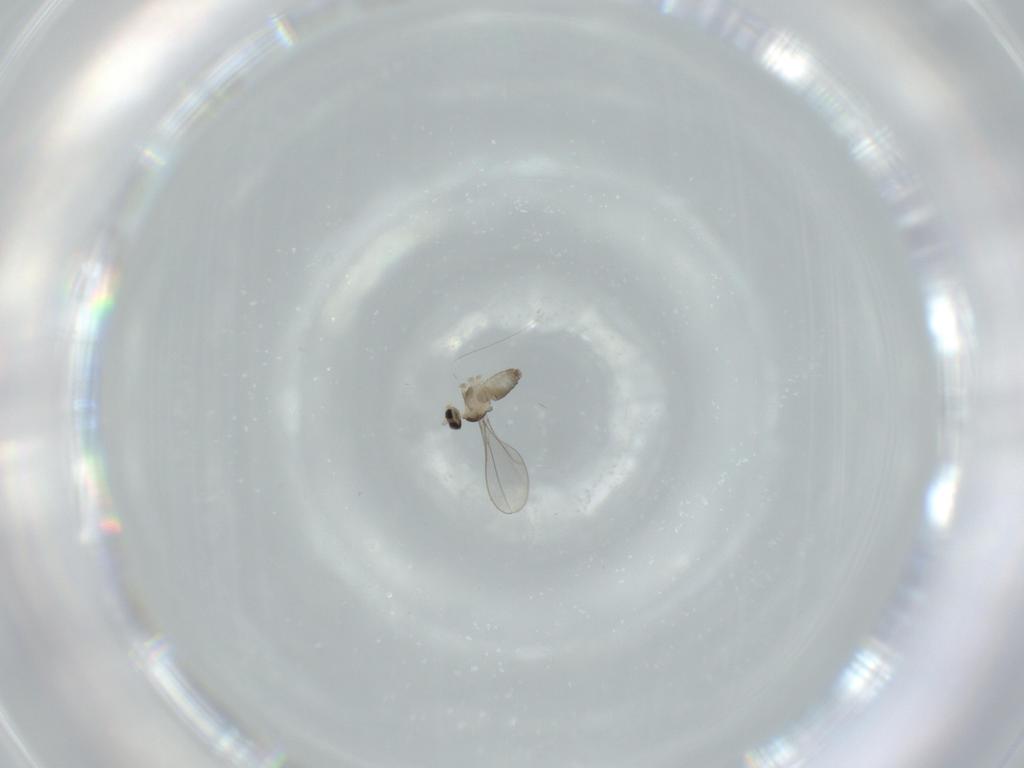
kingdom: Animalia
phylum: Arthropoda
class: Insecta
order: Diptera
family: Cecidomyiidae
